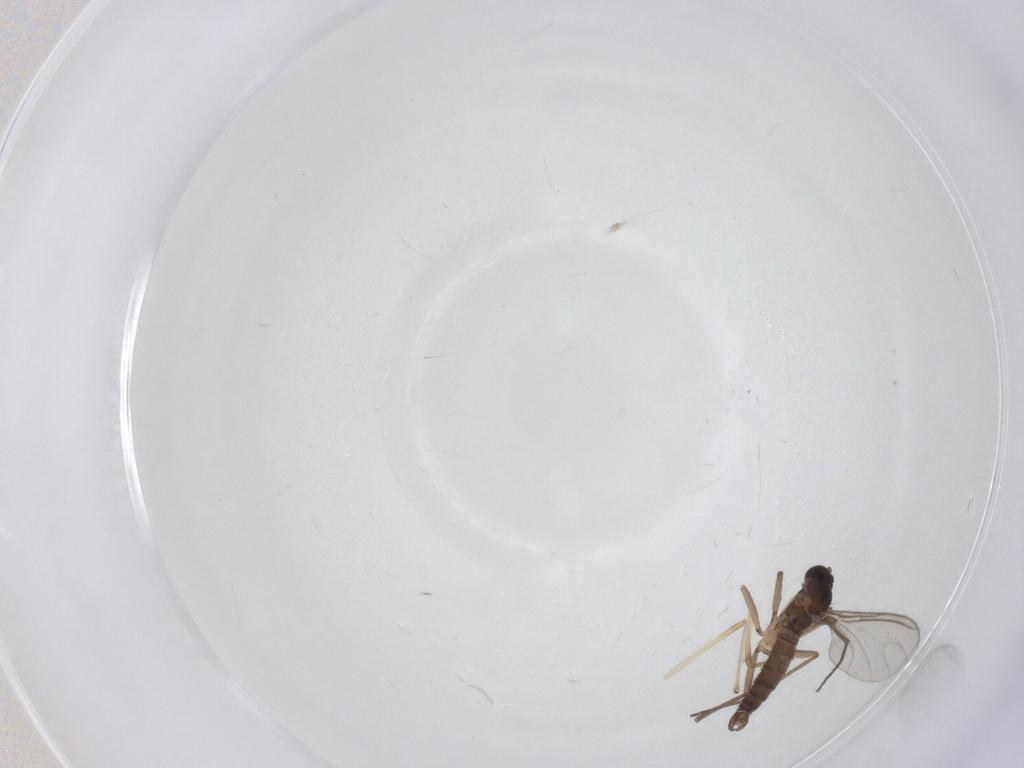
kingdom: Animalia
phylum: Arthropoda
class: Insecta
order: Diptera
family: Sciaridae
